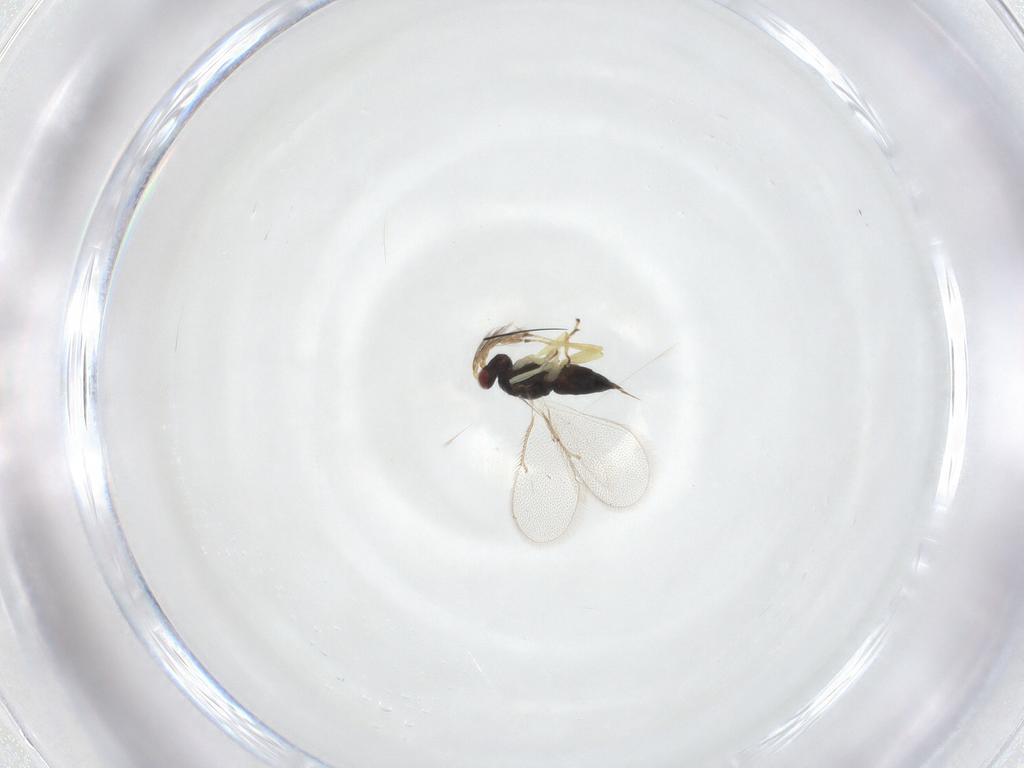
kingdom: Animalia
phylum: Arthropoda
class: Insecta
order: Hymenoptera
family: Eulophidae
